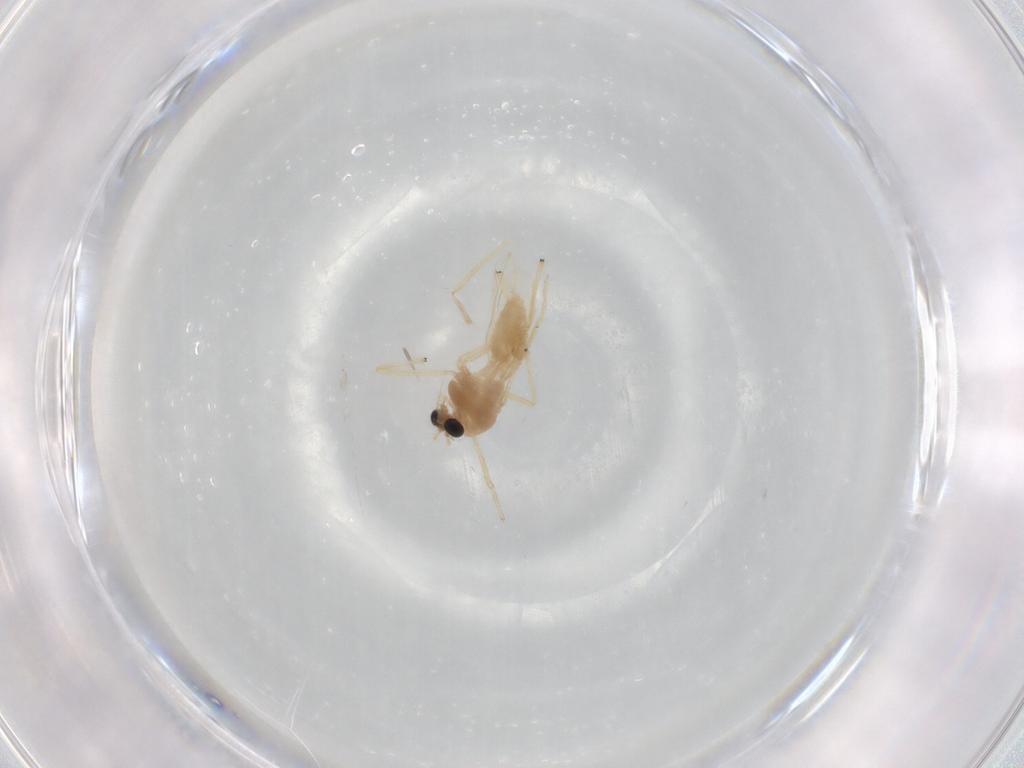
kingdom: Animalia
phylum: Arthropoda
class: Insecta
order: Diptera
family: Chironomidae
